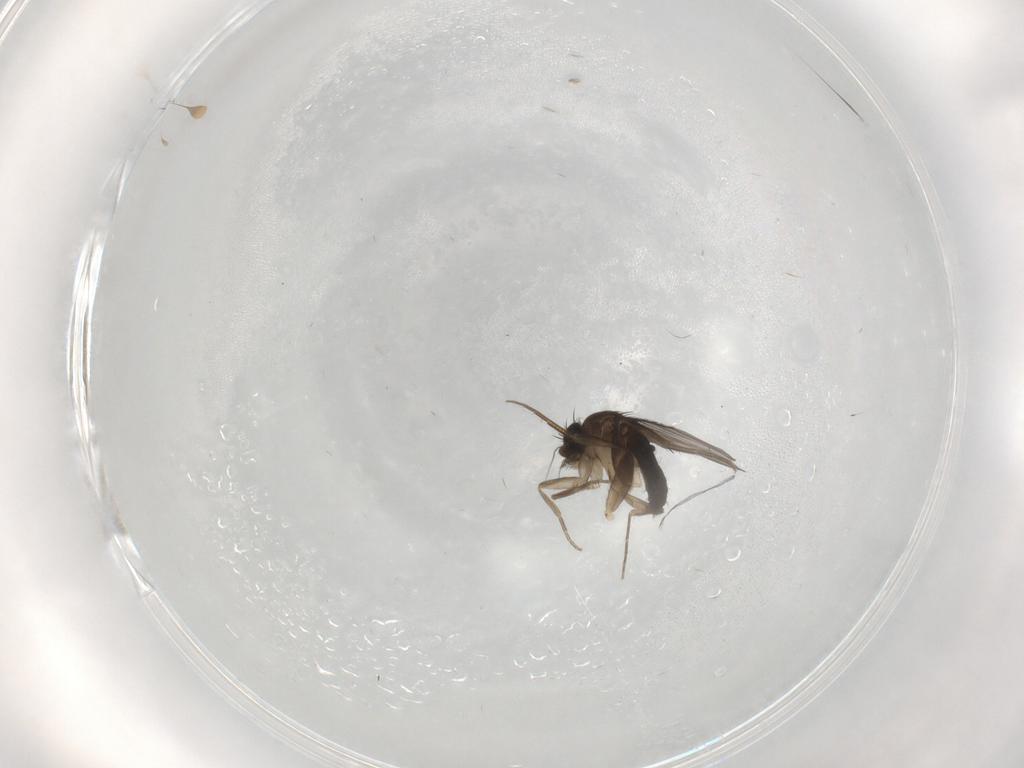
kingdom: Animalia
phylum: Arthropoda
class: Insecta
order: Diptera
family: Phoridae
